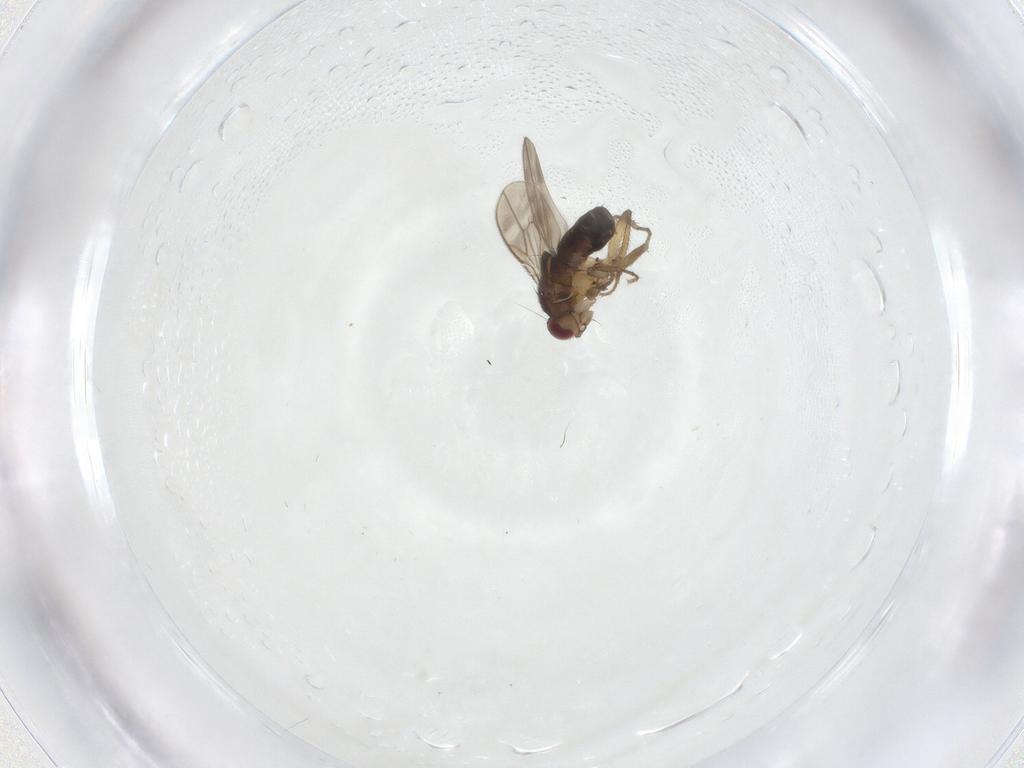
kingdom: Animalia
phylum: Arthropoda
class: Insecta
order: Diptera
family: Sphaeroceridae
